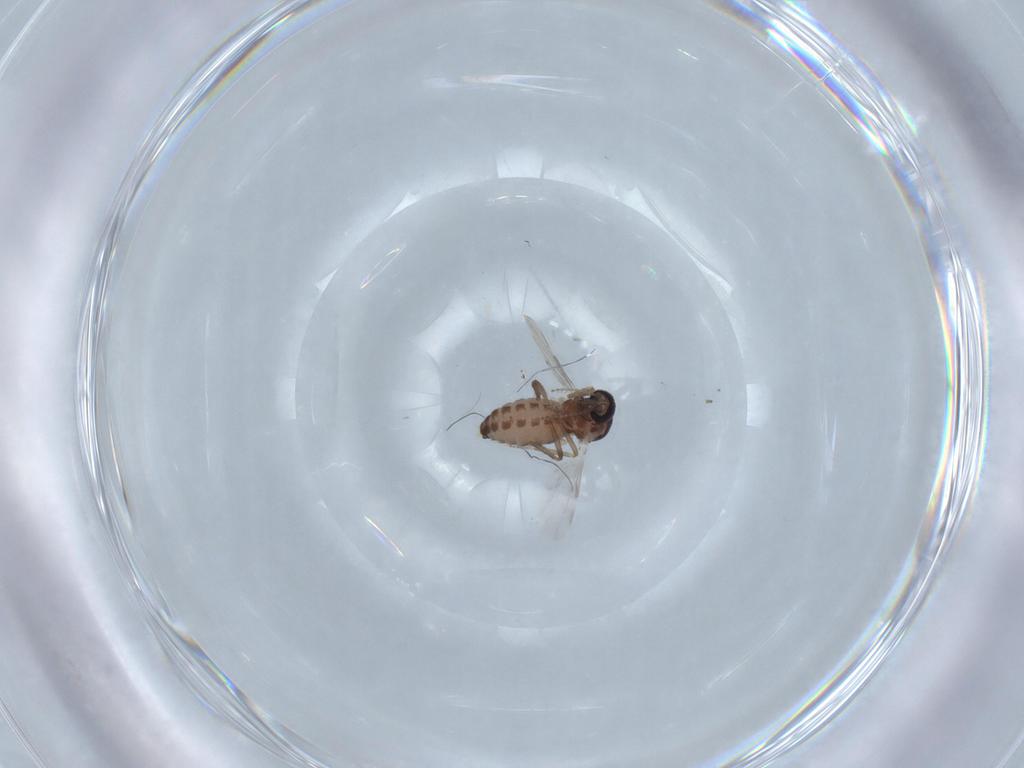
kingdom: Animalia
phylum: Arthropoda
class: Insecta
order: Diptera
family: Ceratopogonidae
